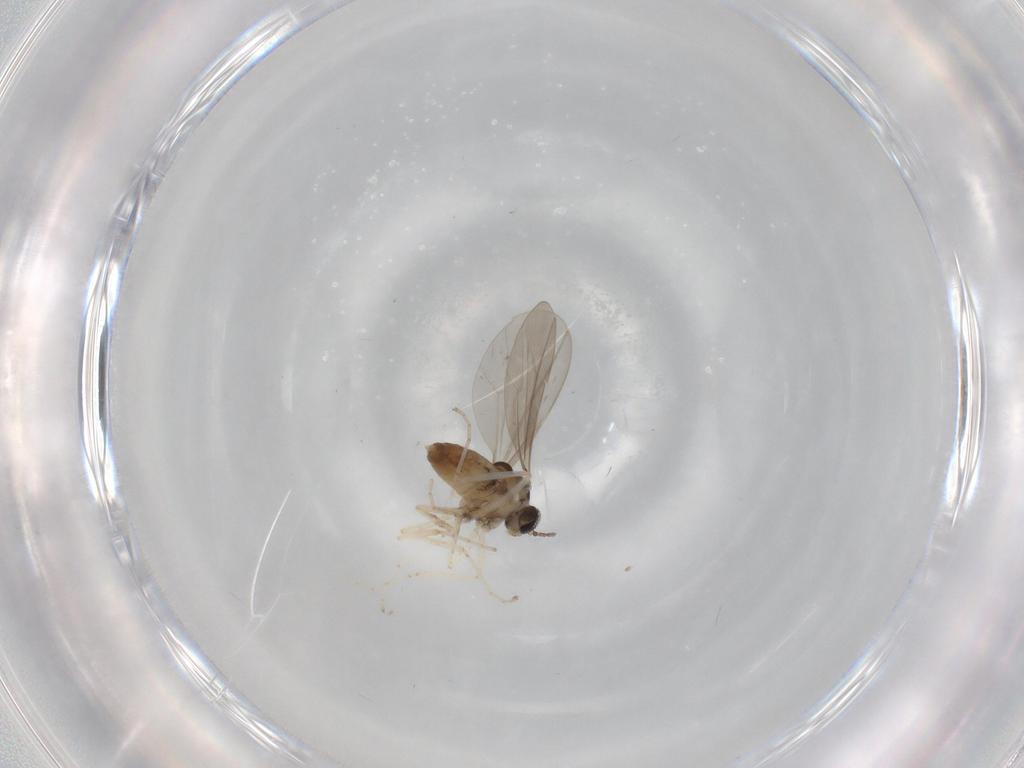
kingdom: Animalia
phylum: Arthropoda
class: Insecta
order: Diptera
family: Cecidomyiidae
